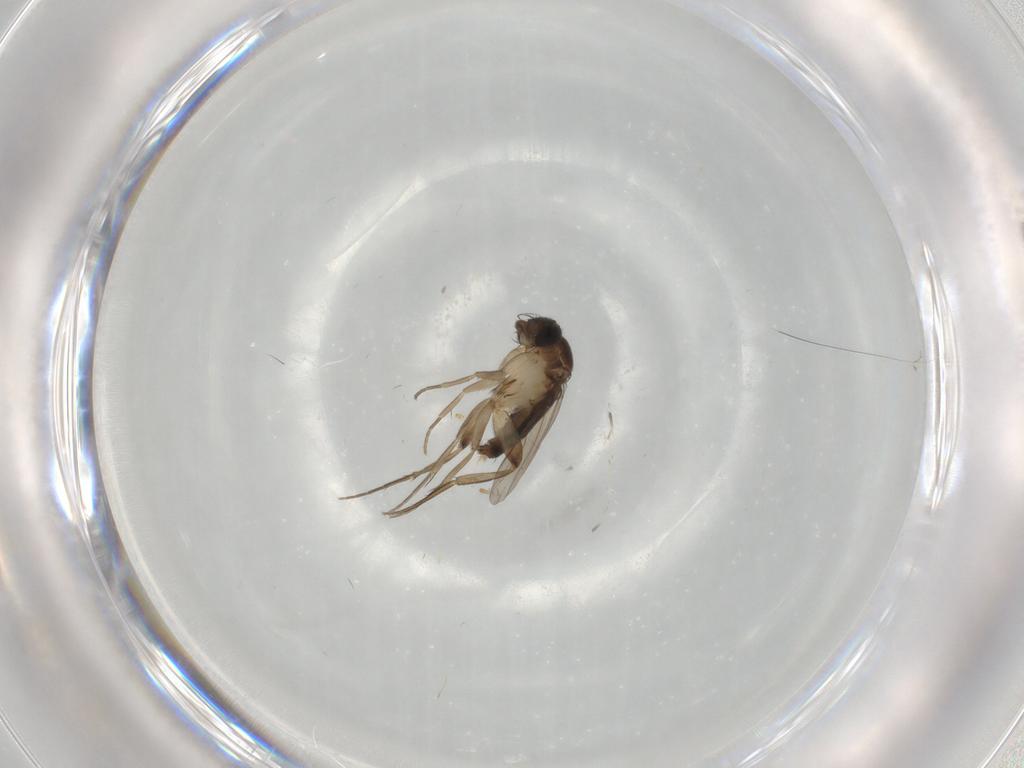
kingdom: Animalia
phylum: Arthropoda
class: Insecta
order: Diptera
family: Phoridae
